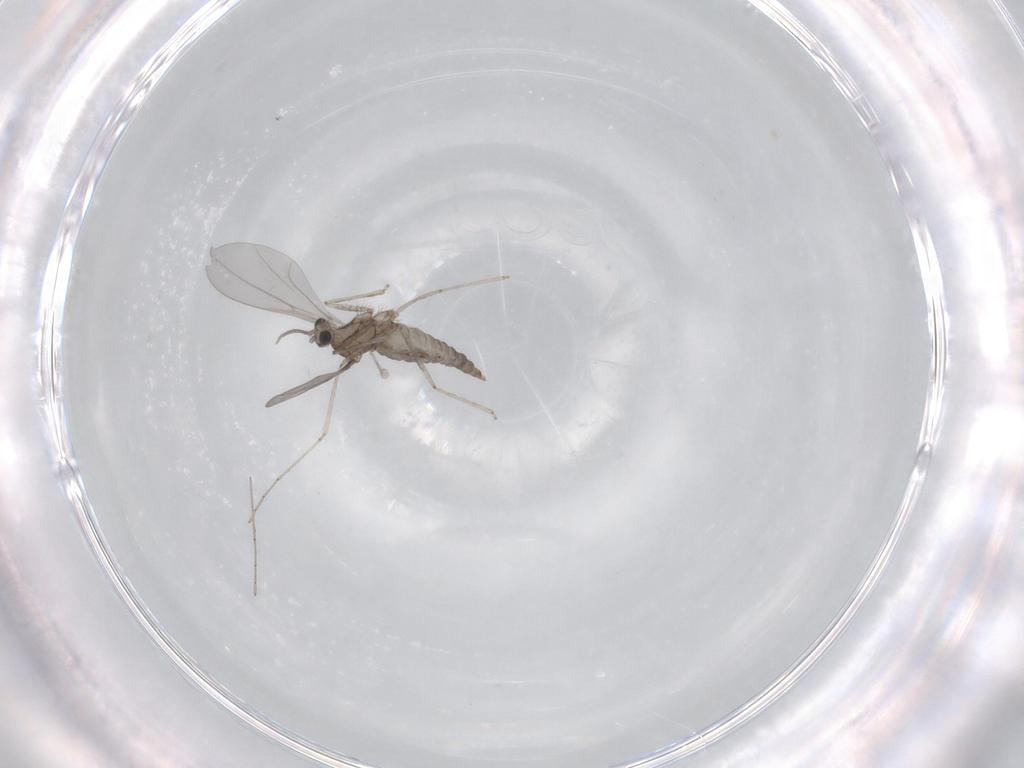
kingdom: Animalia
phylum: Arthropoda
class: Insecta
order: Diptera
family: Cecidomyiidae
